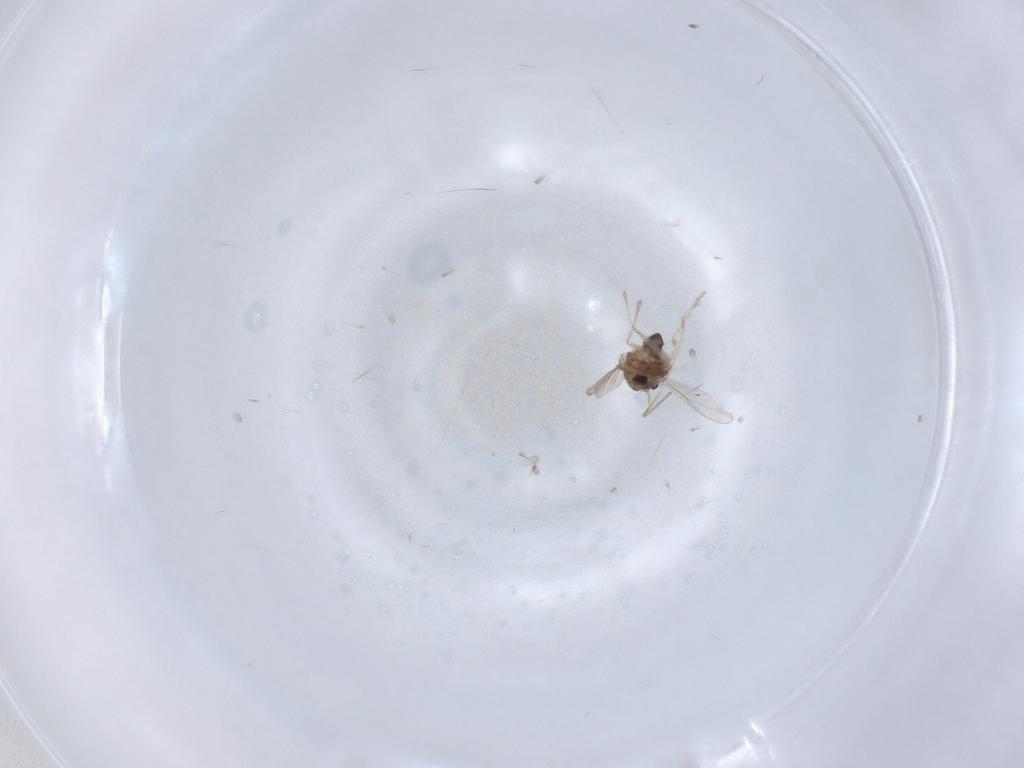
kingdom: Animalia
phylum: Arthropoda
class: Insecta
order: Diptera
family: Chironomidae
